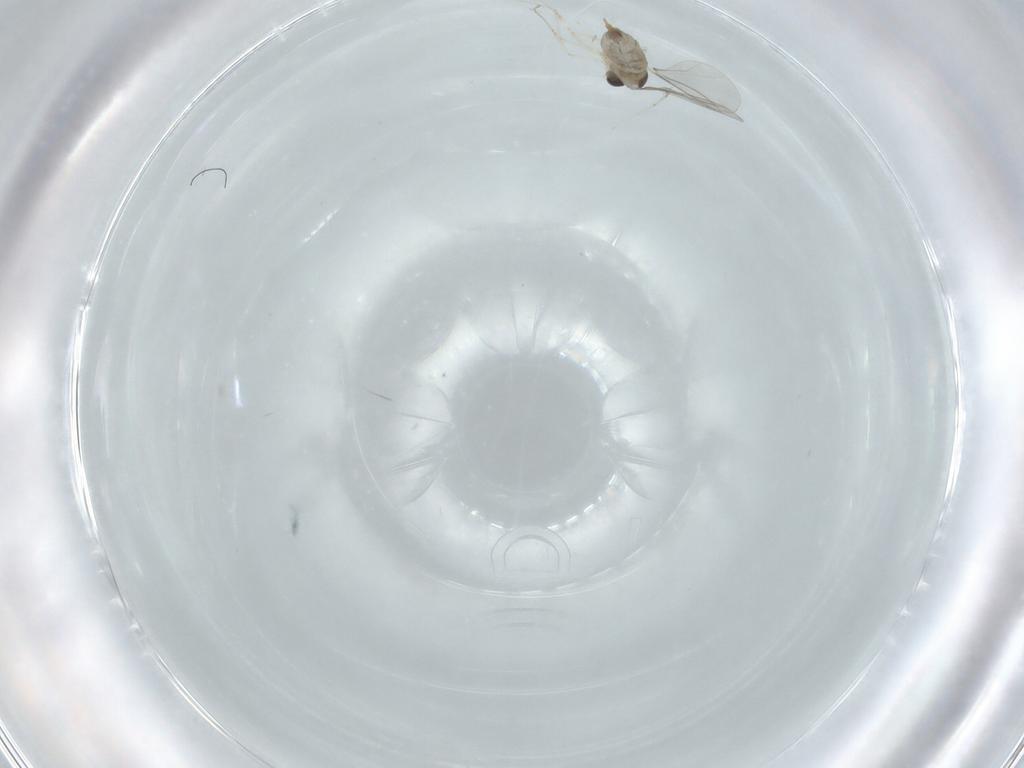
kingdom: Animalia
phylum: Arthropoda
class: Insecta
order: Diptera
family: Cecidomyiidae
